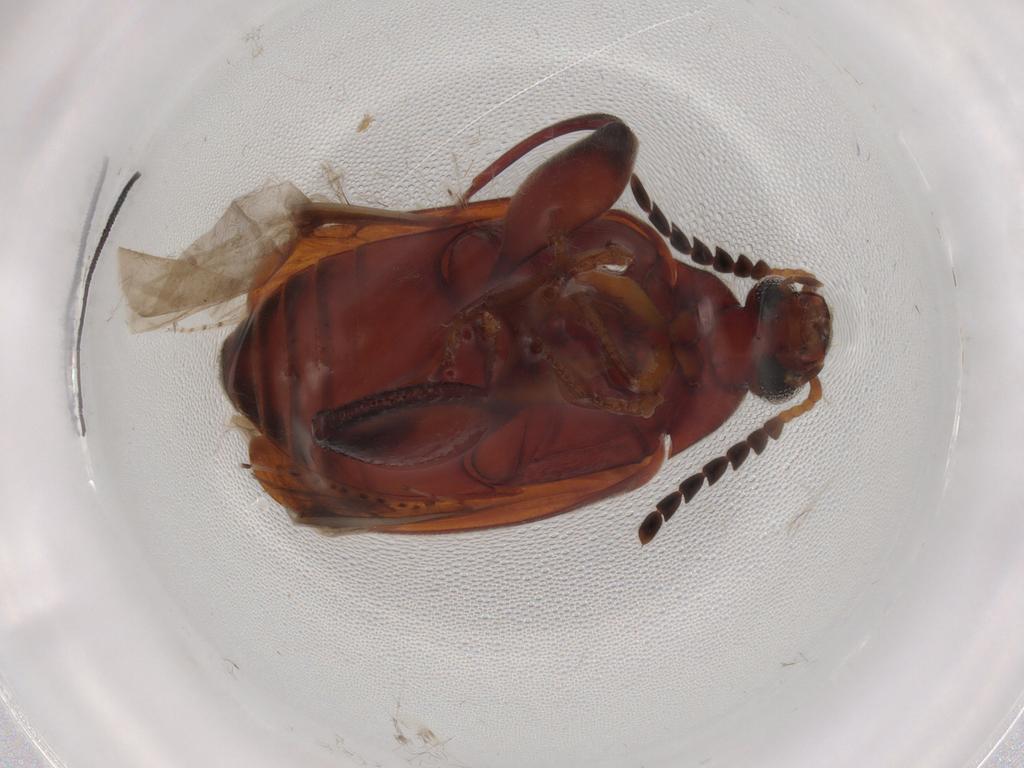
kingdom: Animalia
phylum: Arthropoda
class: Insecta
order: Coleoptera
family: Chrysomelidae
